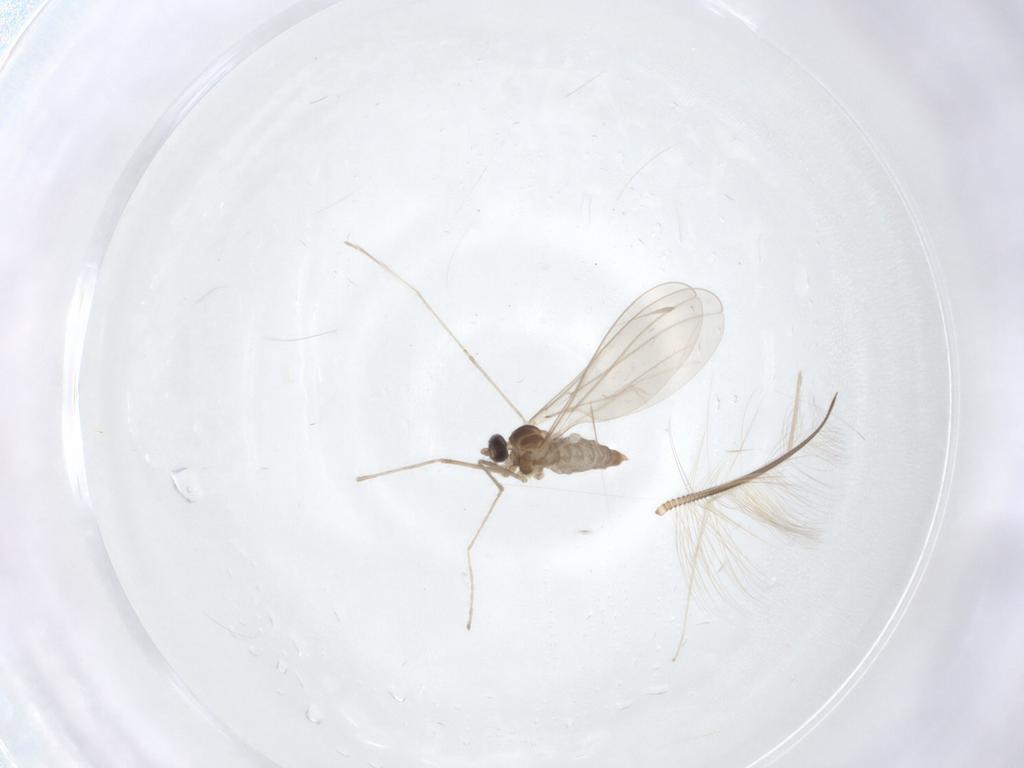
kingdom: Animalia
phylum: Arthropoda
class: Insecta
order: Diptera
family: Cecidomyiidae
